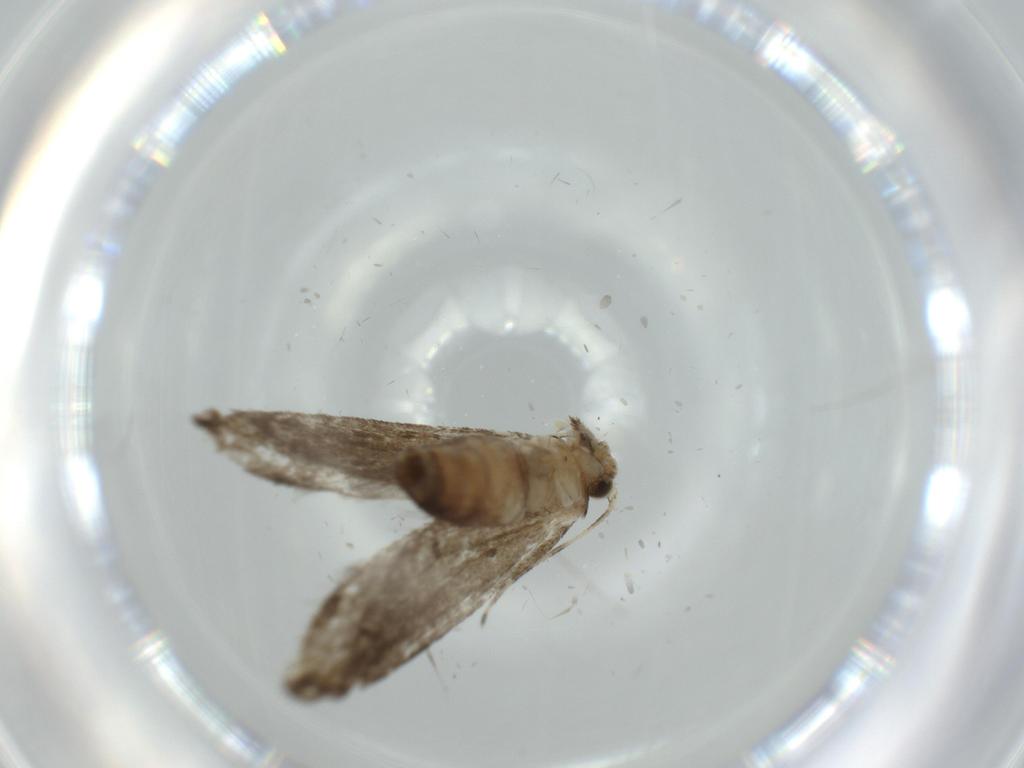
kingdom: Animalia
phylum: Arthropoda
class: Insecta
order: Lepidoptera
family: Tineidae
